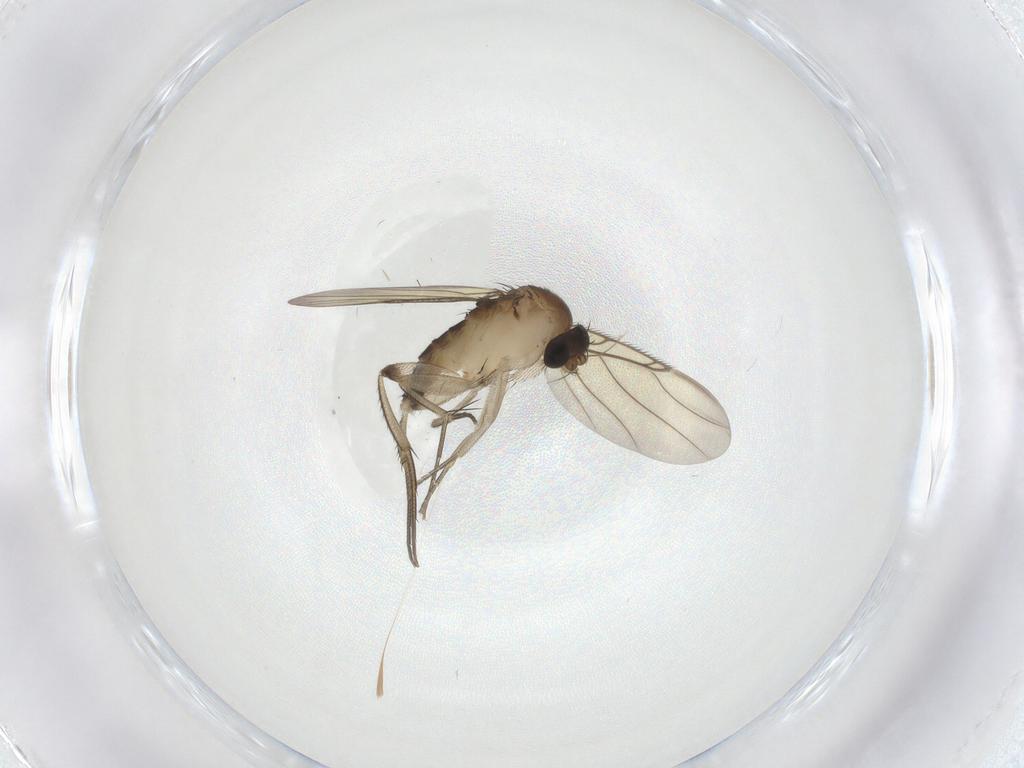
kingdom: Animalia
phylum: Arthropoda
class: Insecta
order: Diptera
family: Phoridae
